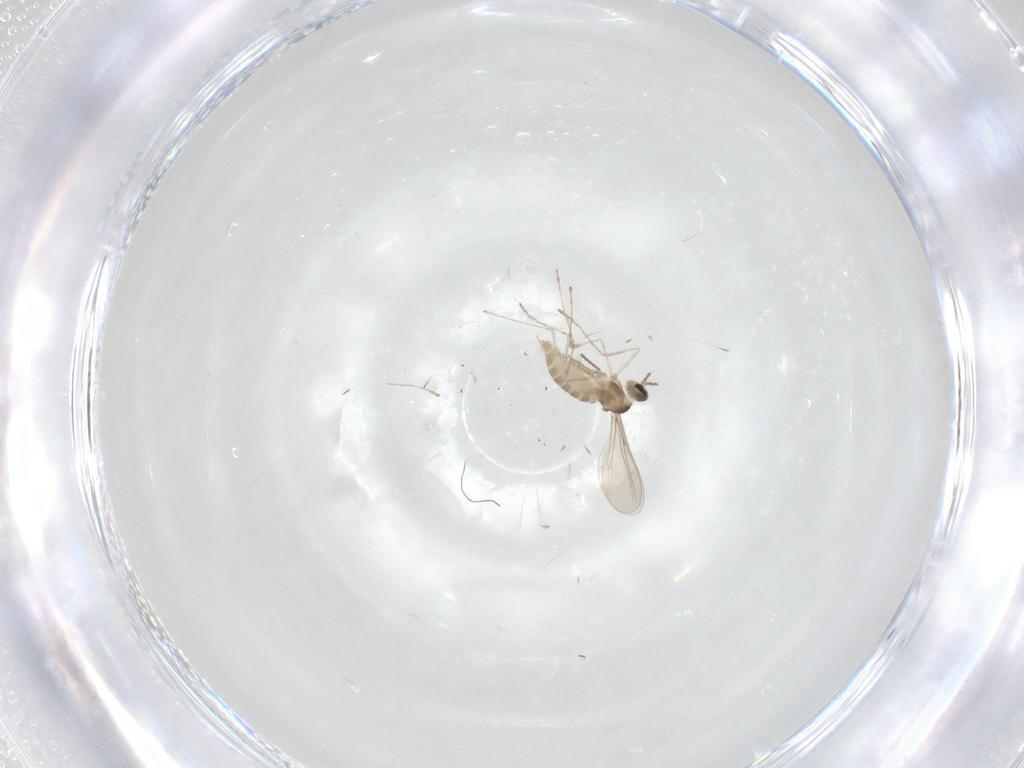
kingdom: Animalia
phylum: Arthropoda
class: Insecta
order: Diptera
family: Cecidomyiidae
